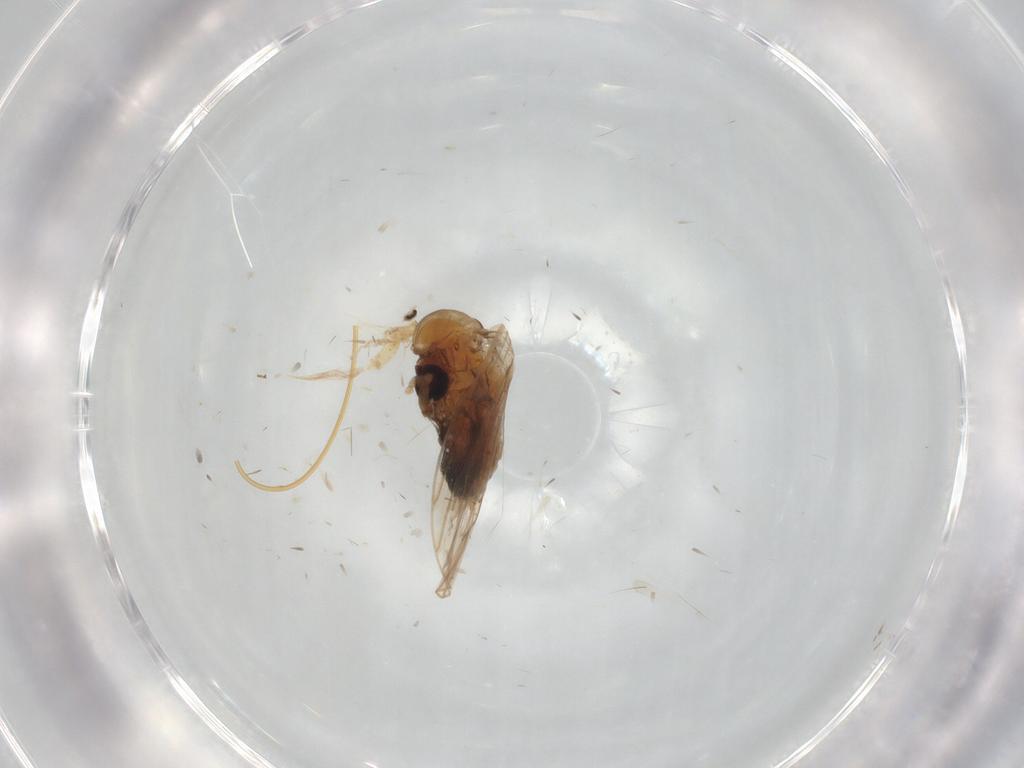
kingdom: Animalia
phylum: Arthropoda
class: Insecta
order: Diptera
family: Psychodidae
